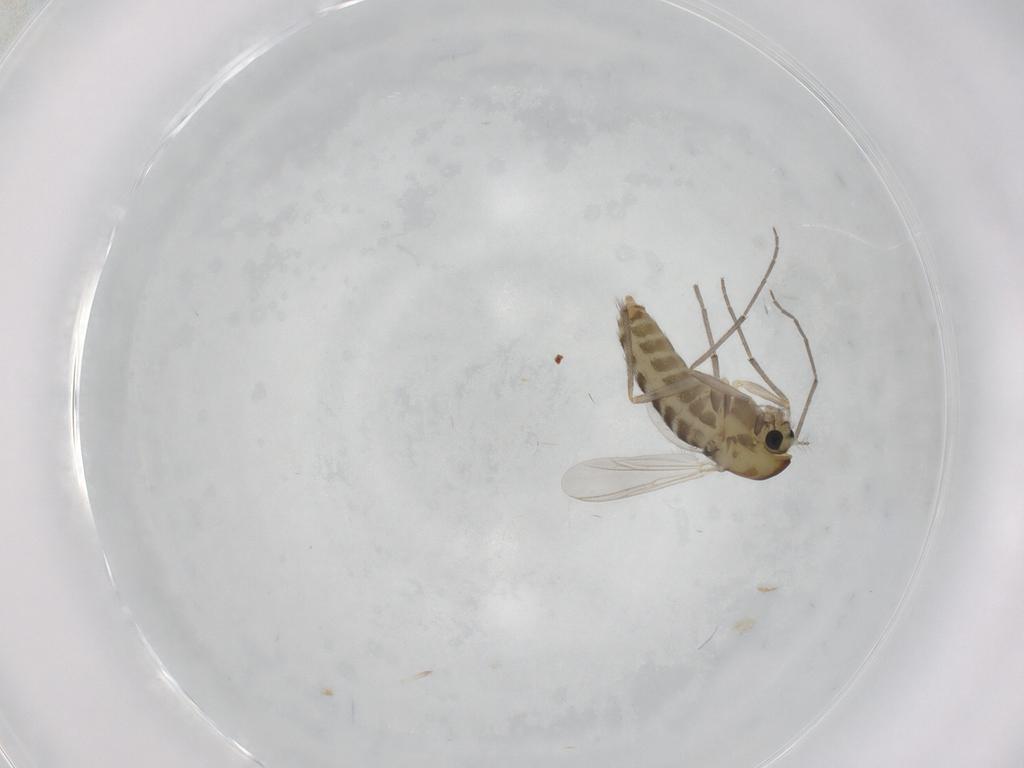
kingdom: Animalia
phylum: Arthropoda
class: Insecta
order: Diptera
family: Chironomidae
